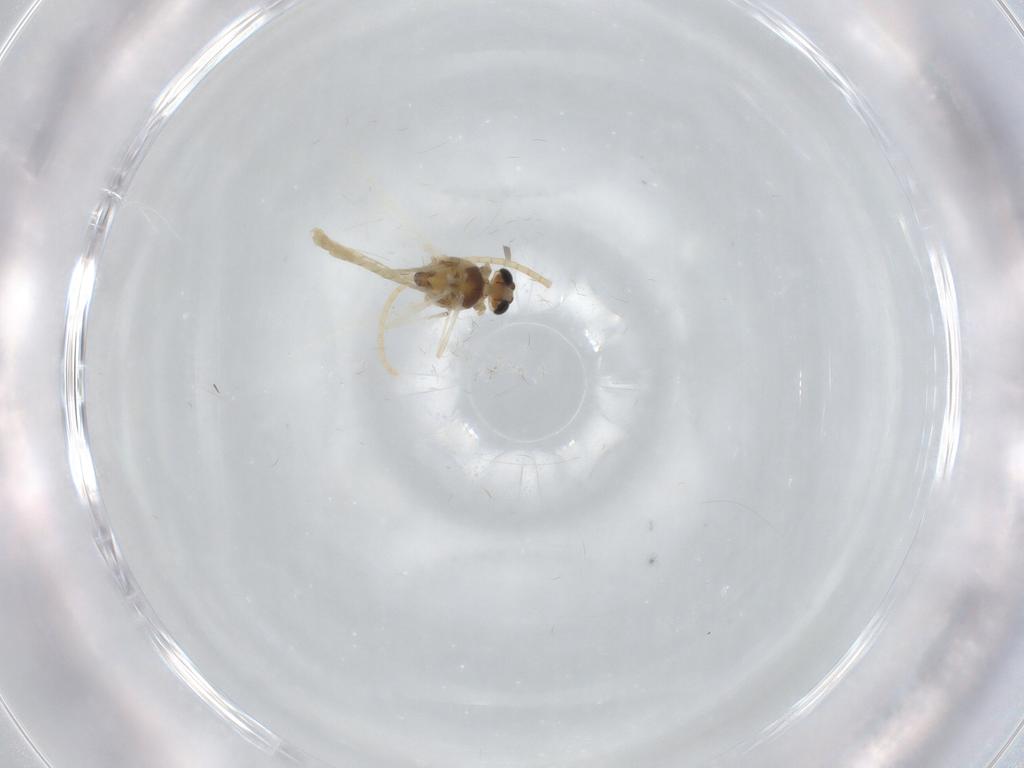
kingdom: Animalia
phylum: Arthropoda
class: Insecta
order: Diptera
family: Chironomidae
